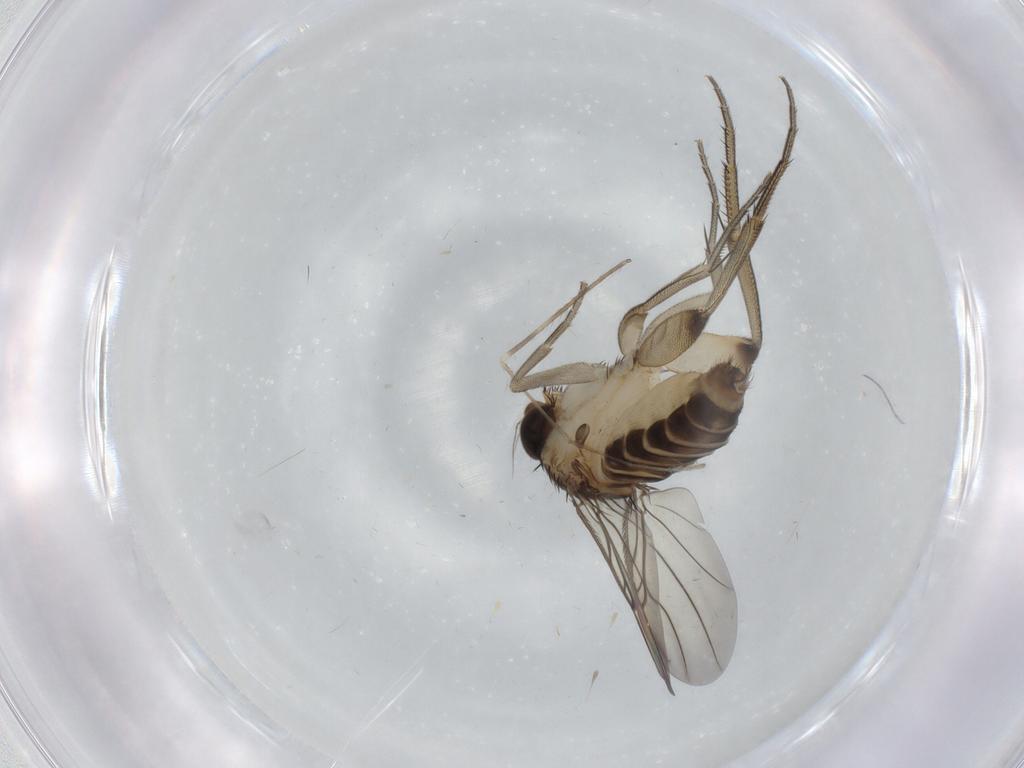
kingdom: Animalia
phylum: Arthropoda
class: Insecta
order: Diptera
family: Phoridae
